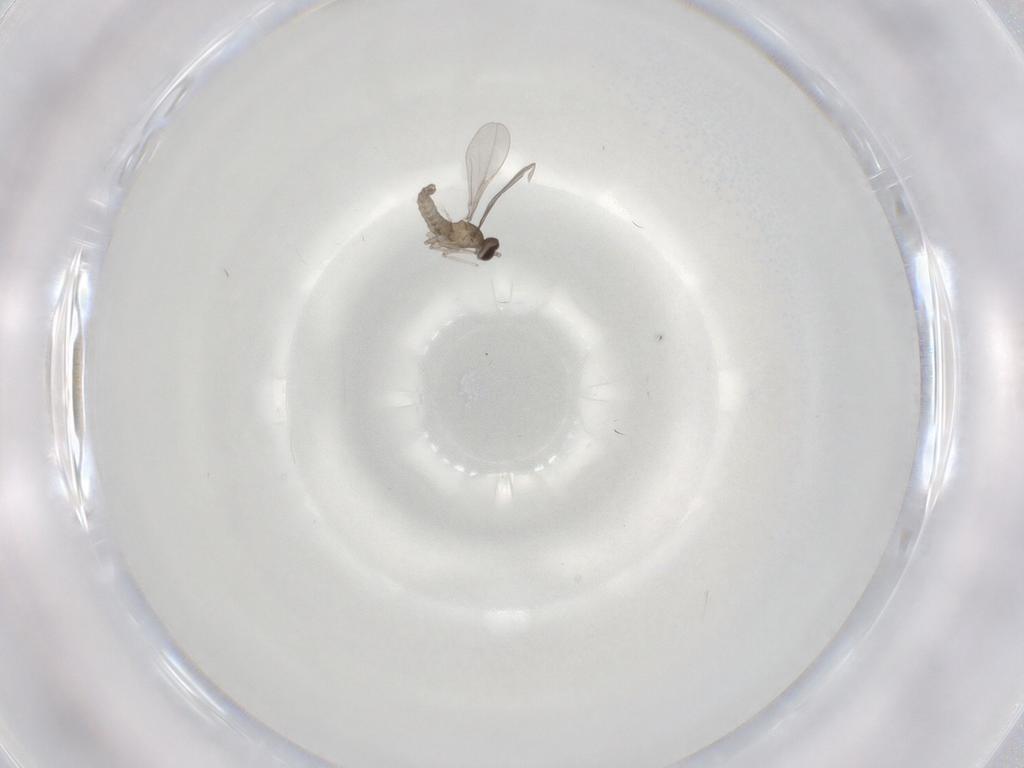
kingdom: Animalia
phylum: Arthropoda
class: Insecta
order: Diptera
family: Cecidomyiidae
